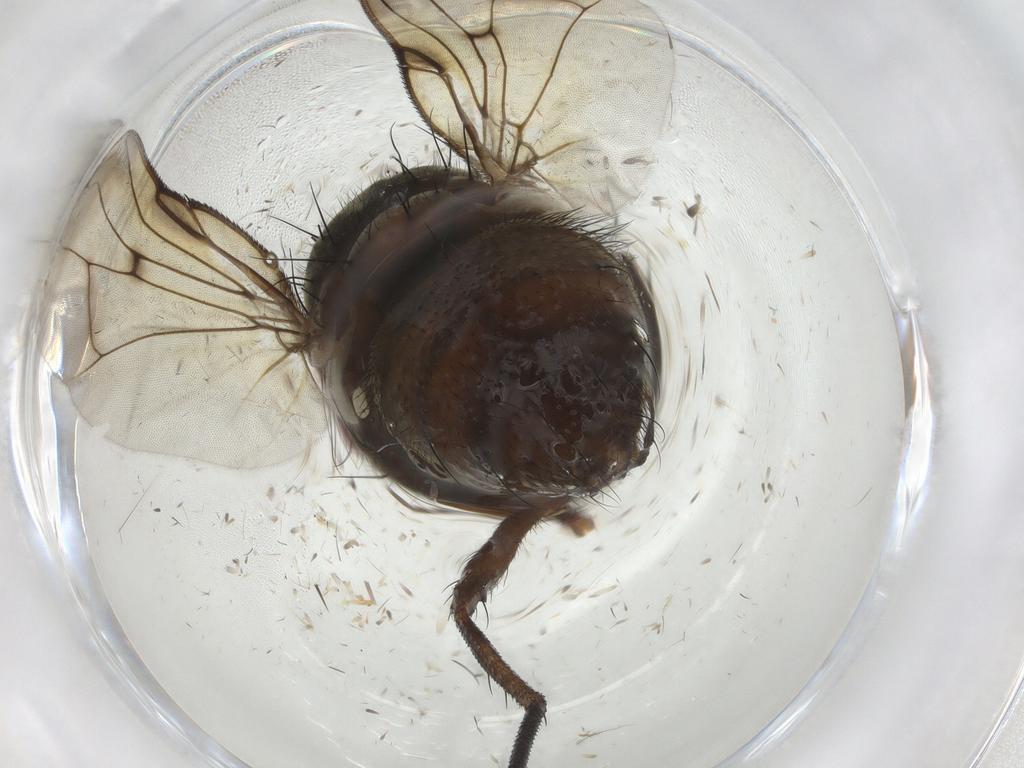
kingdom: Animalia
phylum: Arthropoda
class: Insecta
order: Diptera
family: Muscidae
